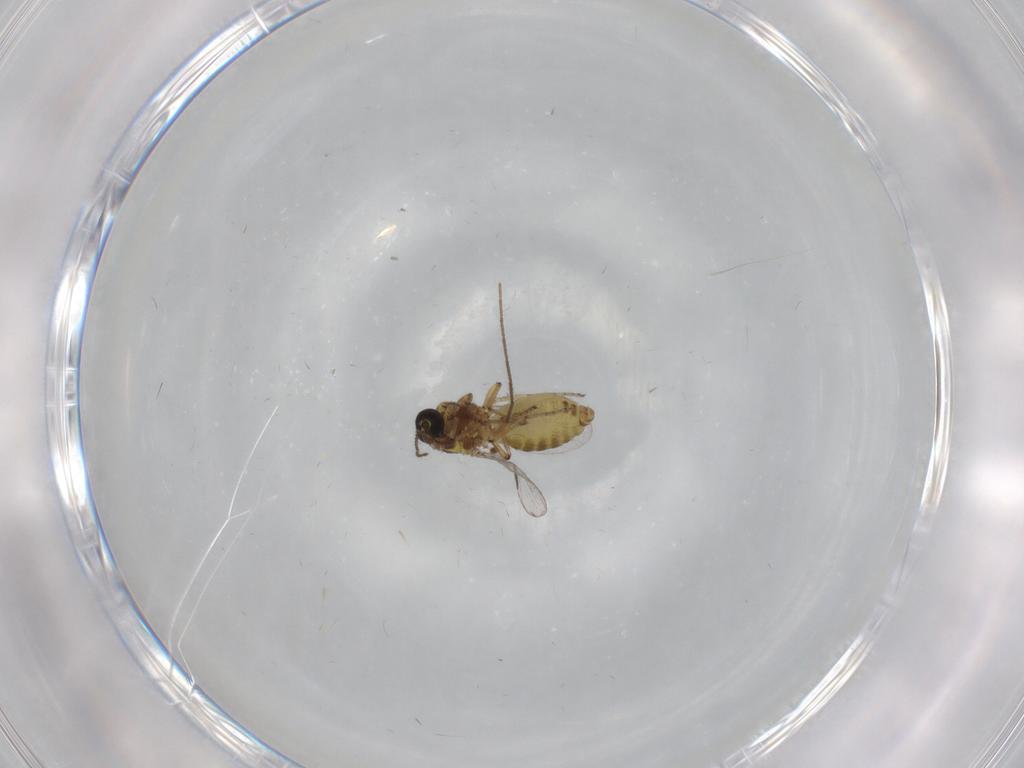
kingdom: Animalia
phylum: Arthropoda
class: Insecta
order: Diptera
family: Ceratopogonidae
